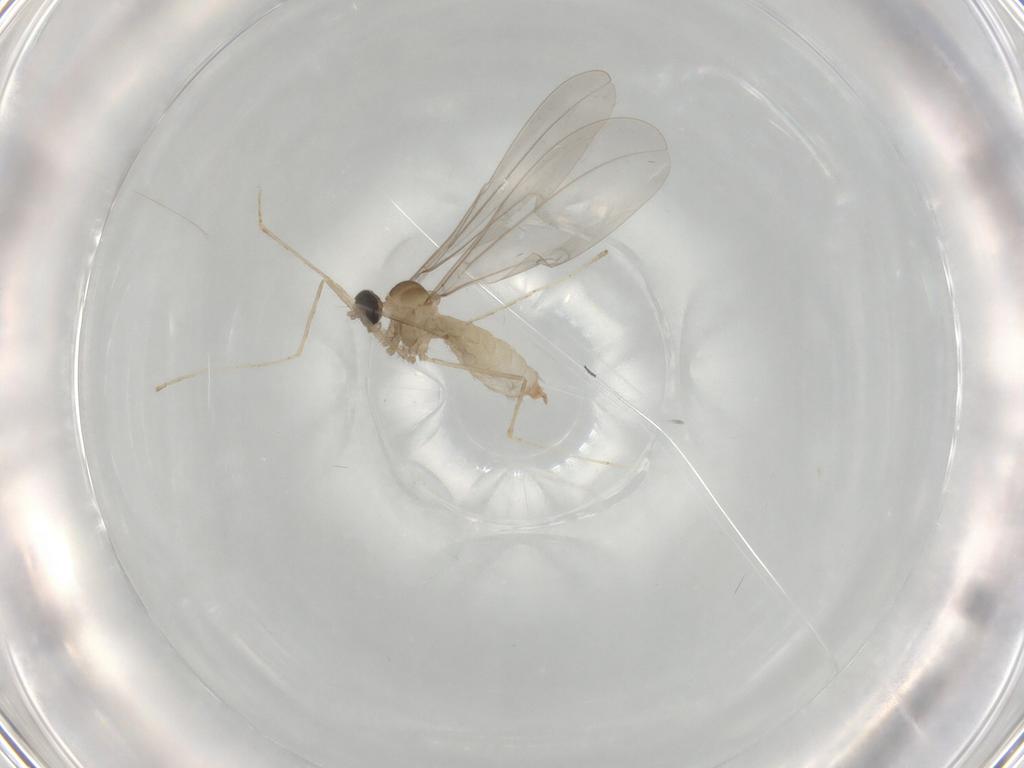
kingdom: Animalia
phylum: Arthropoda
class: Insecta
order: Diptera
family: Cecidomyiidae
